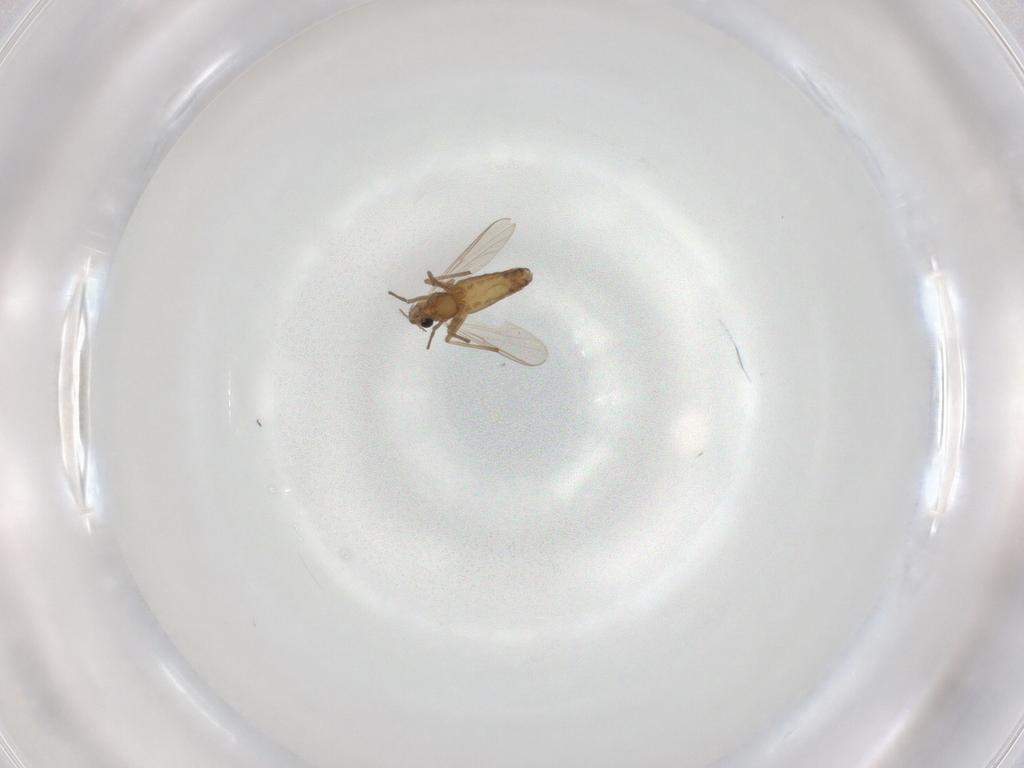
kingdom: Animalia
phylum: Arthropoda
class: Insecta
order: Diptera
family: Chironomidae
